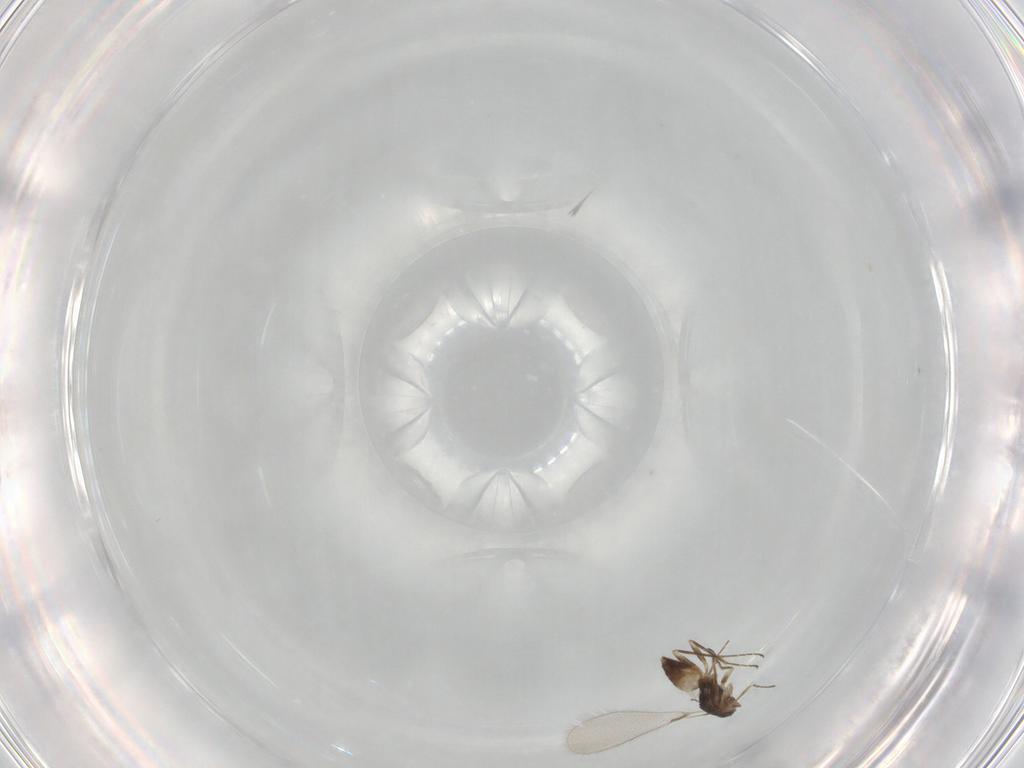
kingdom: Animalia
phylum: Arthropoda
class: Insecta
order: Hymenoptera
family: Mymaridae
